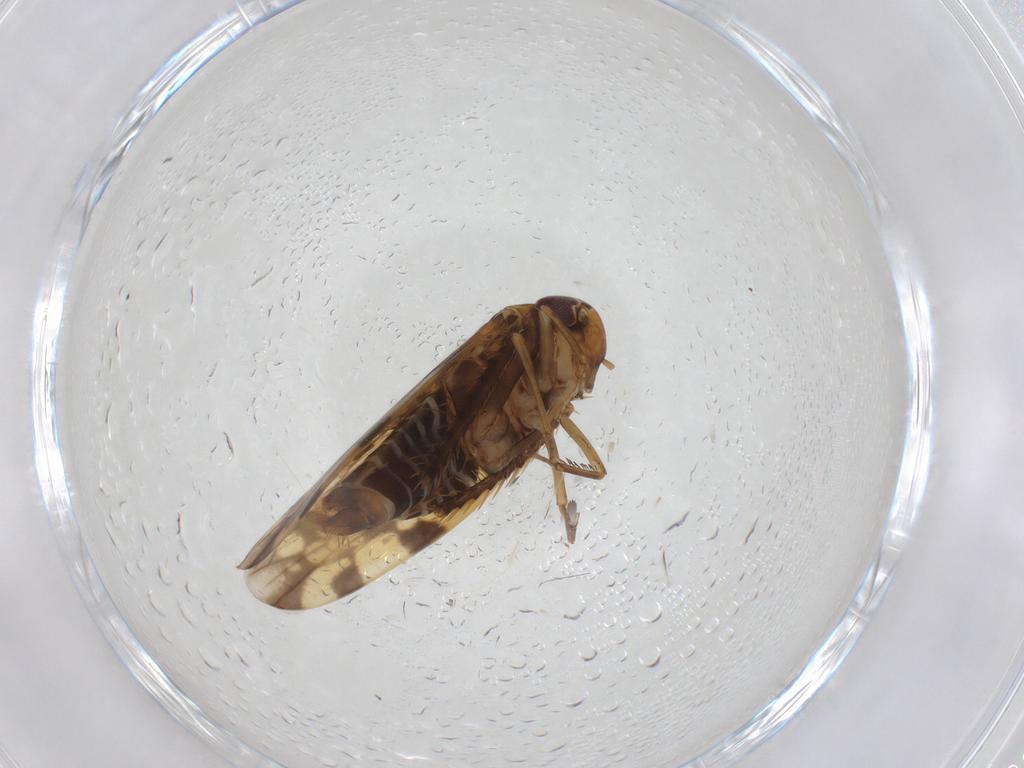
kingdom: Animalia
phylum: Arthropoda
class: Insecta
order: Hemiptera
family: Cicadellidae
